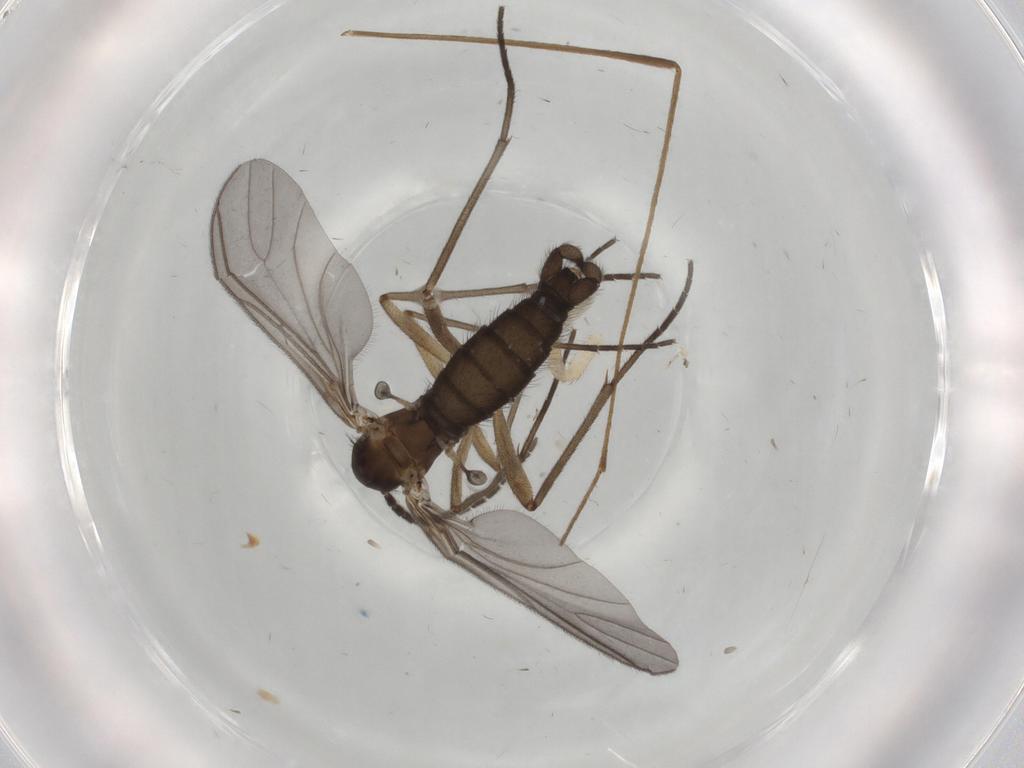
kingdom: Animalia
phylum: Arthropoda
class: Insecta
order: Diptera
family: Sciaridae
